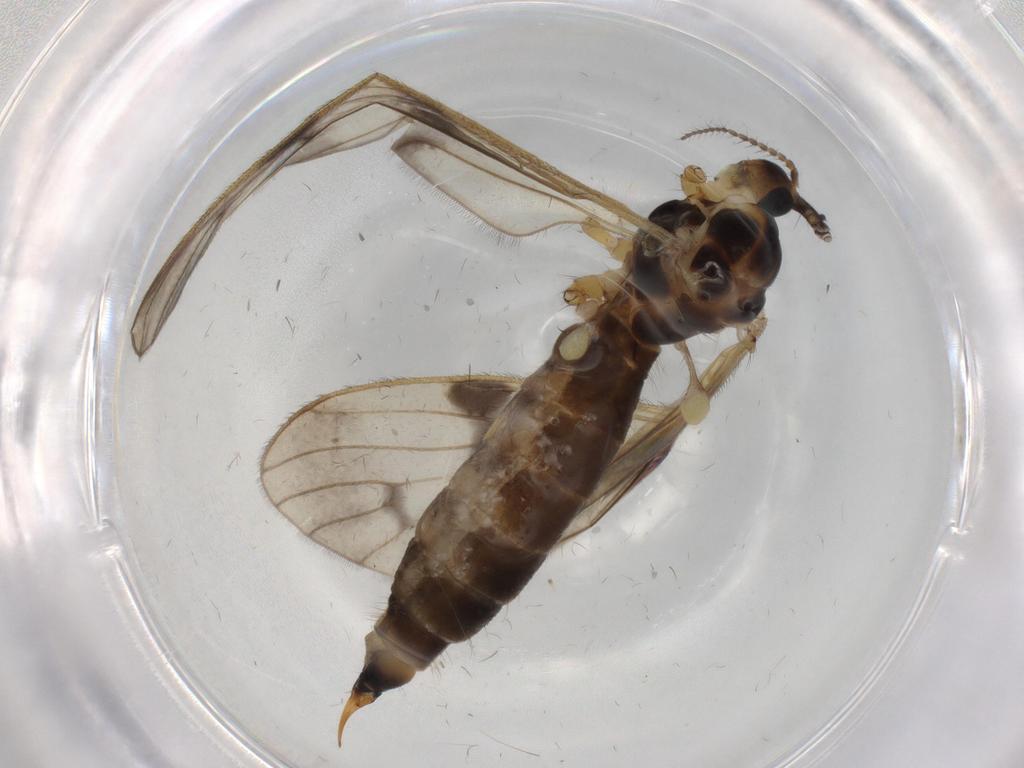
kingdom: Animalia
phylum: Arthropoda
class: Insecta
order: Diptera
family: Limoniidae
